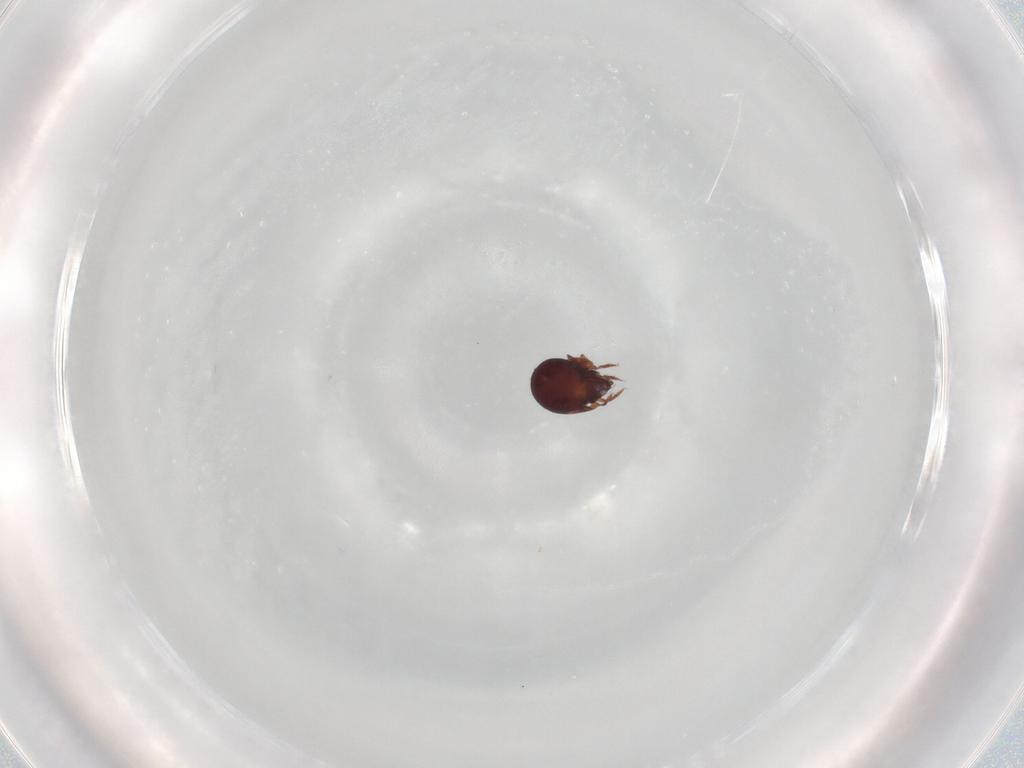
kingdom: Animalia
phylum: Arthropoda
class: Arachnida
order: Sarcoptiformes
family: Humerobatidae
